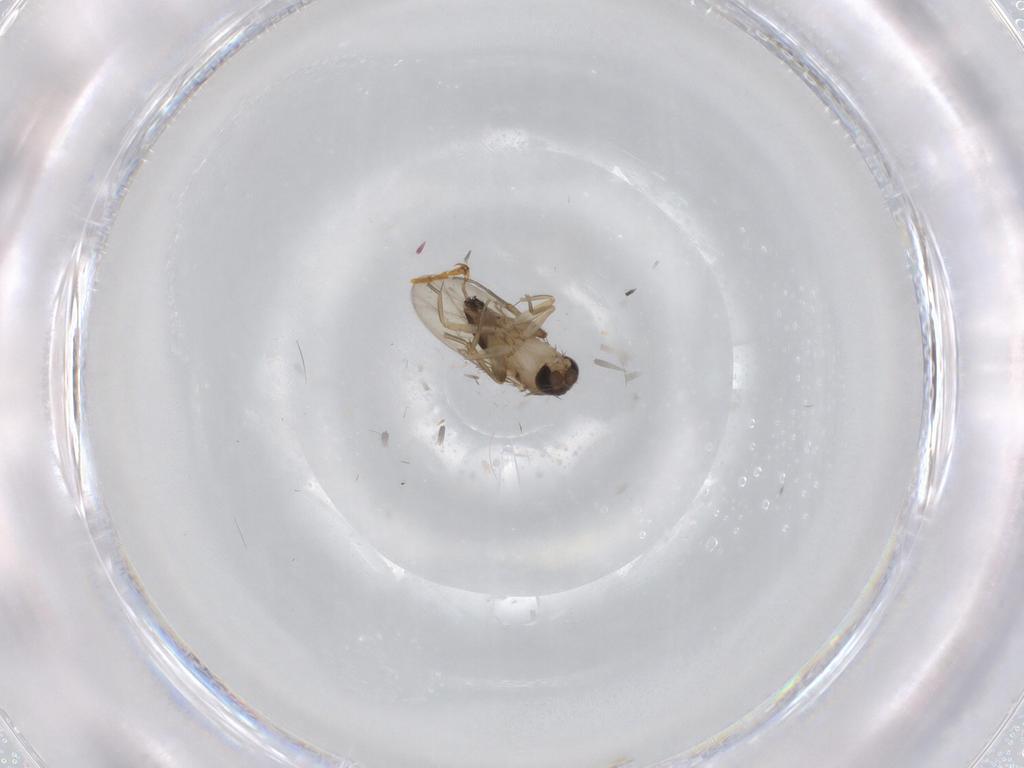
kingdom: Animalia
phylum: Arthropoda
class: Insecta
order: Diptera
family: Phoridae
